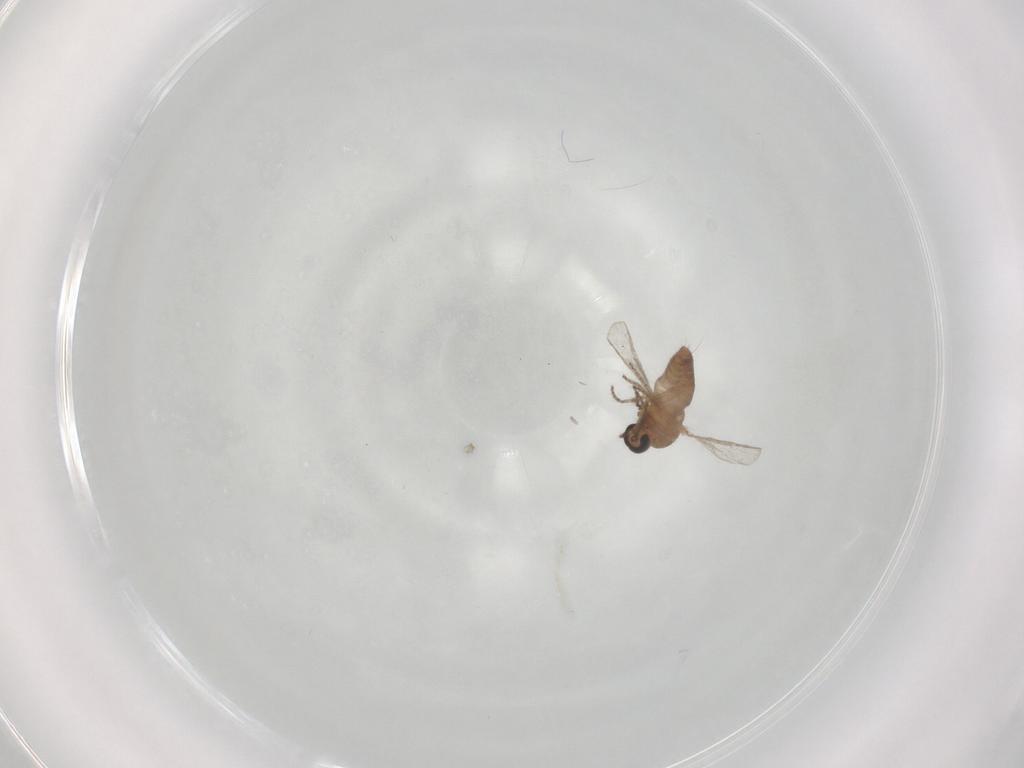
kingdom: Animalia
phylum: Arthropoda
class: Insecta
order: Diptera
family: Ceratopogonidae
